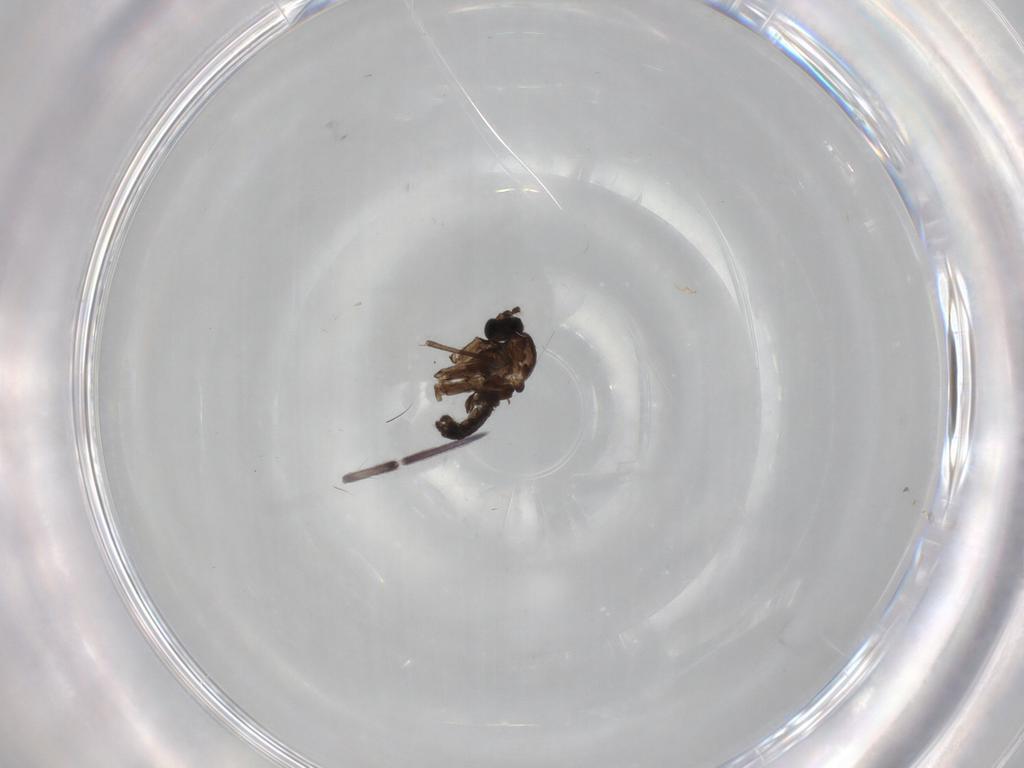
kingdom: Animalia
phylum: Arthropoda
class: Insecta
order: Diptera
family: Sciaridae
